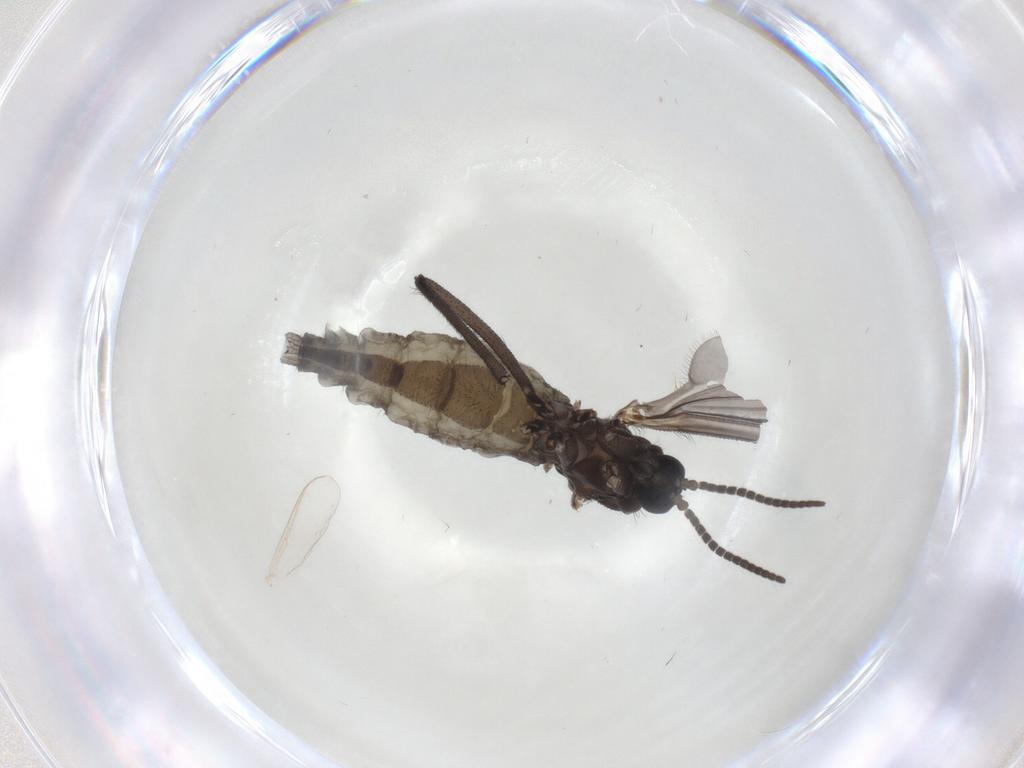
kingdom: Animalia
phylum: Arthropoda
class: Insecta
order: Diptera
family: Sciaridae
